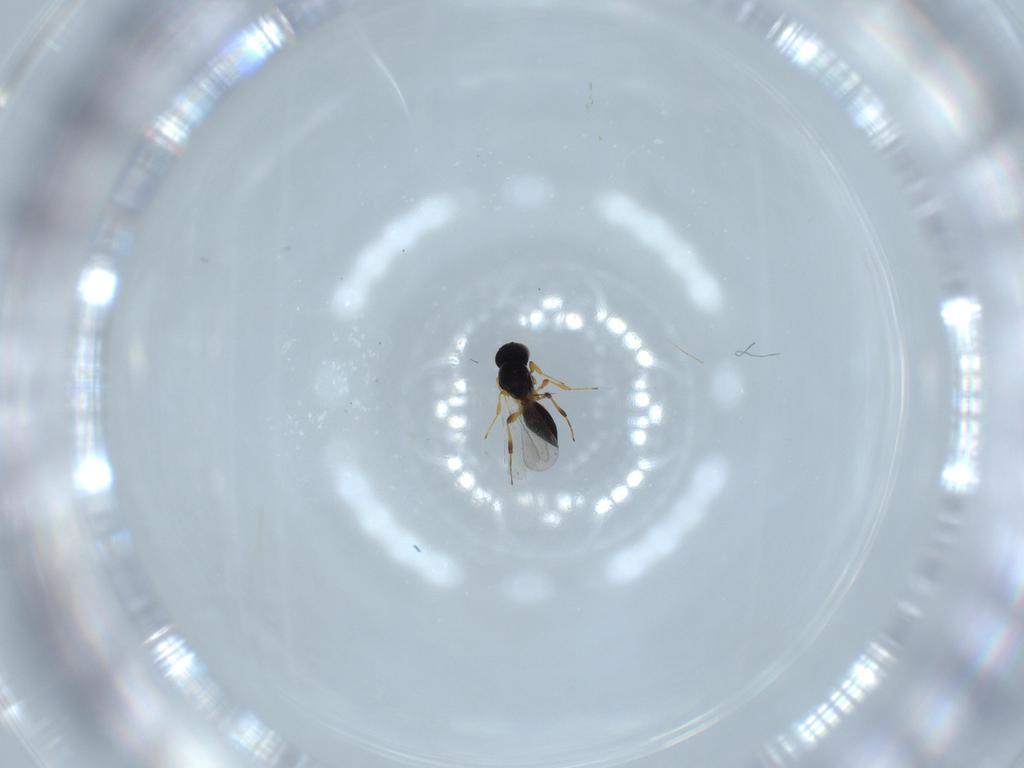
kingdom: Animalia
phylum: Arthropoda
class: Insecta
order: Hymenoptera
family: Platygastridae
